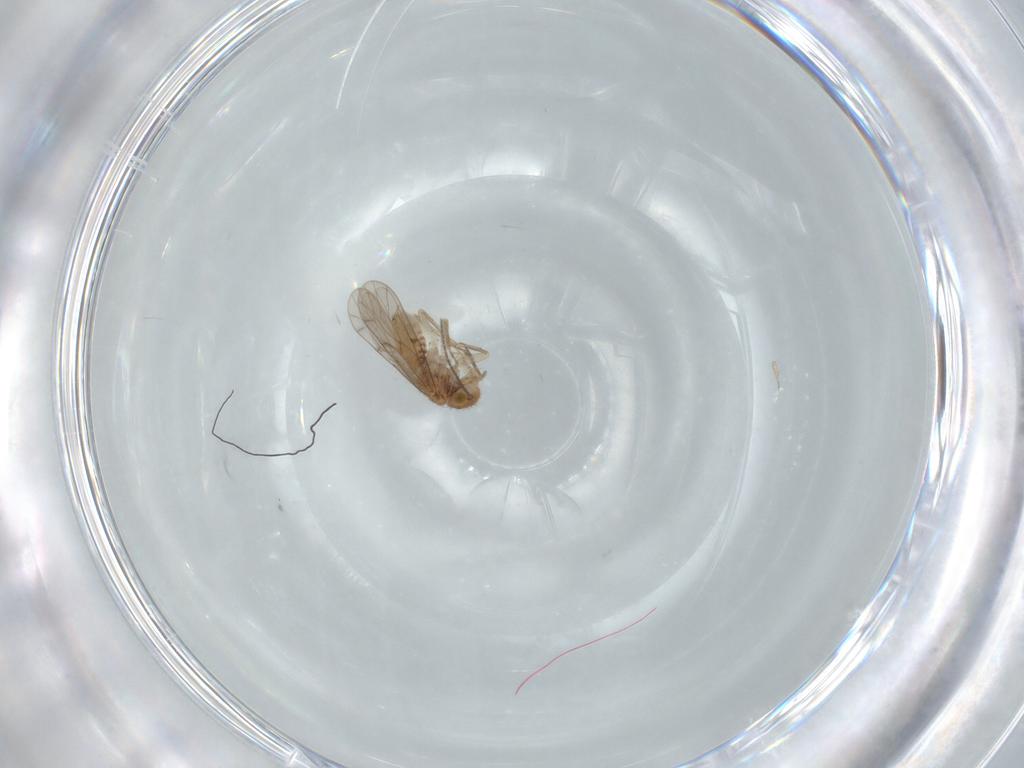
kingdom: Animalia
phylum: Arthropoda
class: Insecta
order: Psocodea
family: Ectopsocidae
